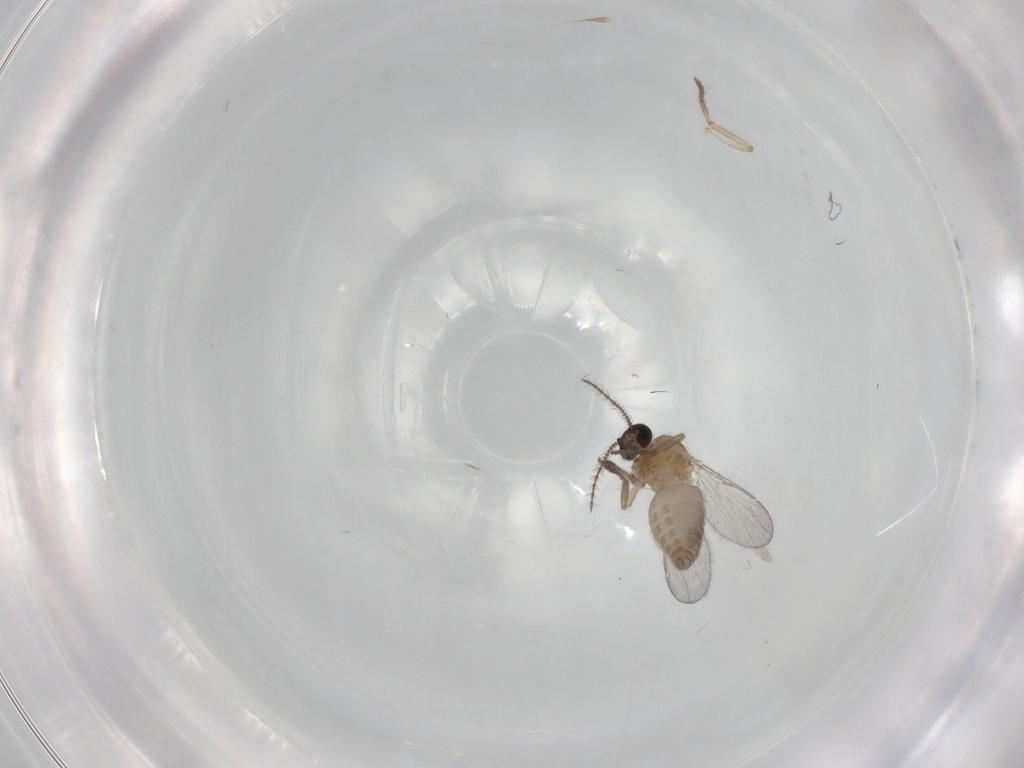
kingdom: Animalia
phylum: Arthropoda
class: Insecta
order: Diptera
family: Ceratopogonidae
